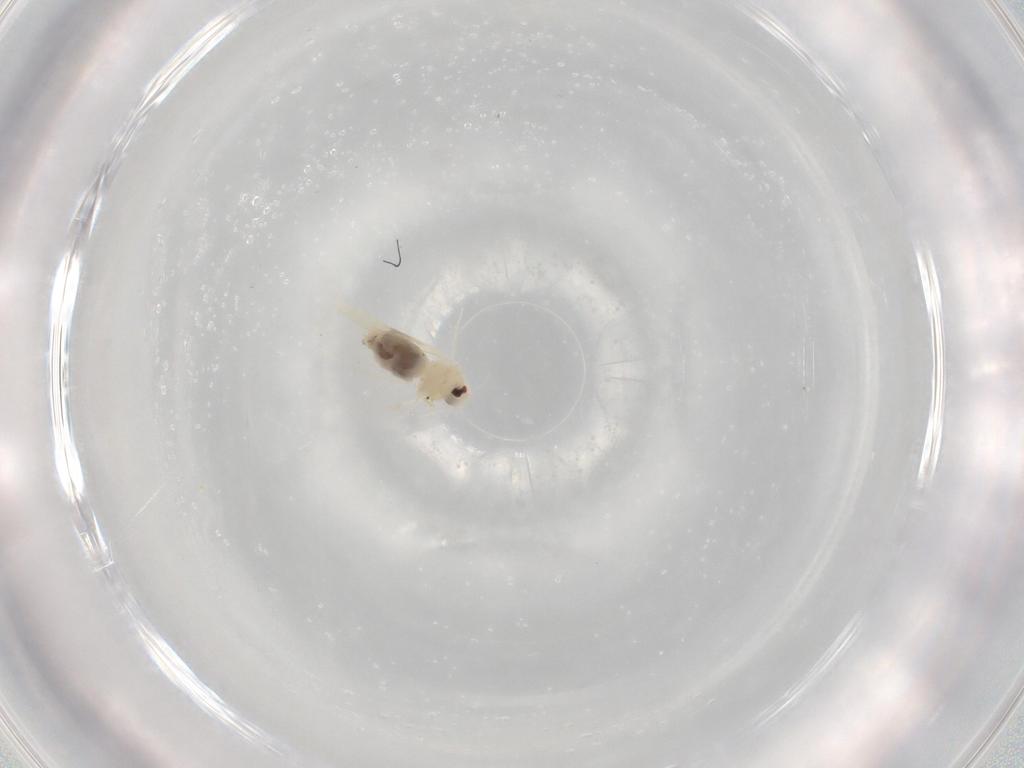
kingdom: Animalia
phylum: Arthropoda
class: Insecta
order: Hemiptera
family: Aleyrodidae
